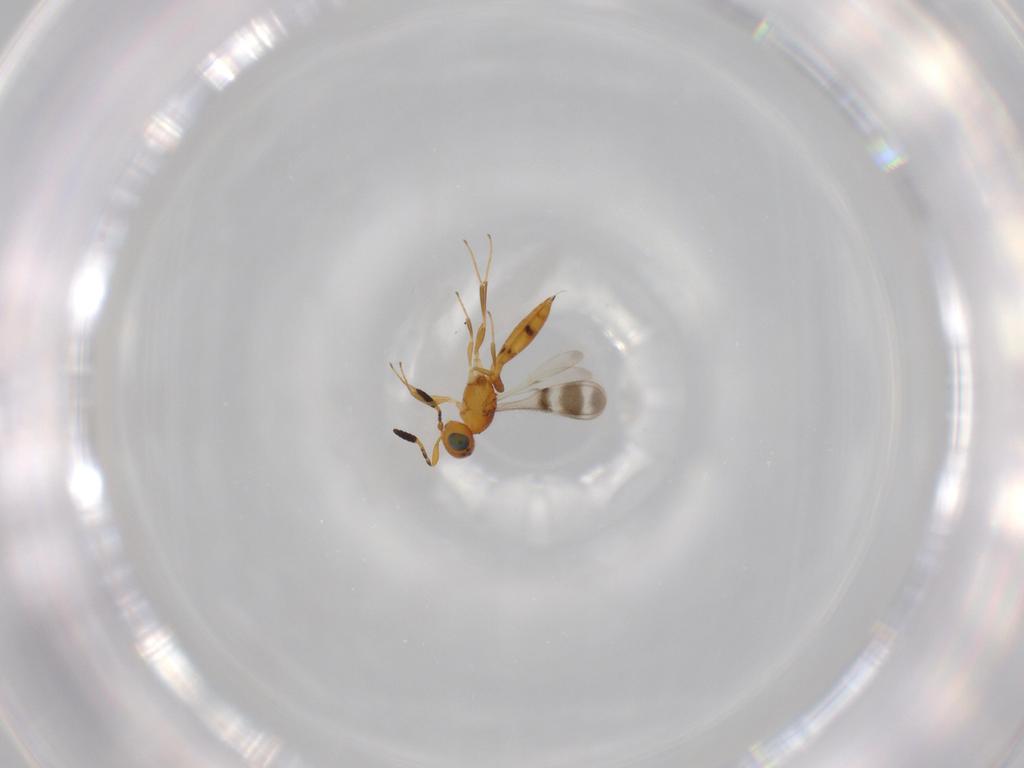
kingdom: Animalia
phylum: Arthropoda
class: Insecta
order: Hymenoptera
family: Scelionidae
